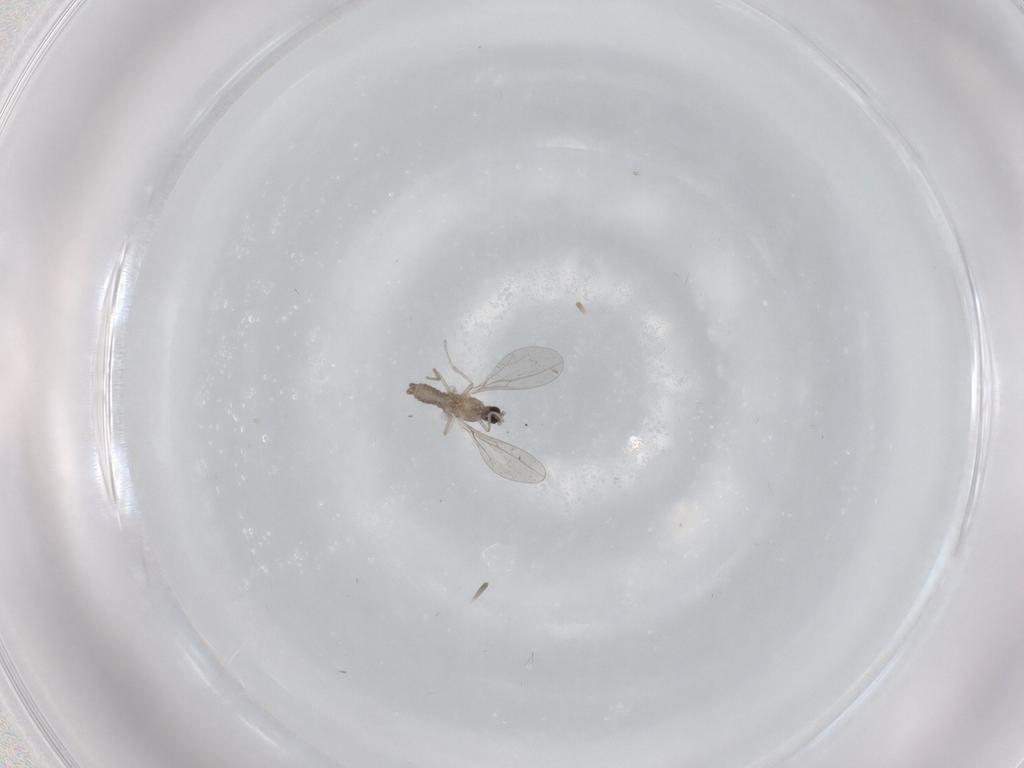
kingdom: Animalia
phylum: Arthropoda
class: Insecta
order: Diptera
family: Cecidomyiidae
